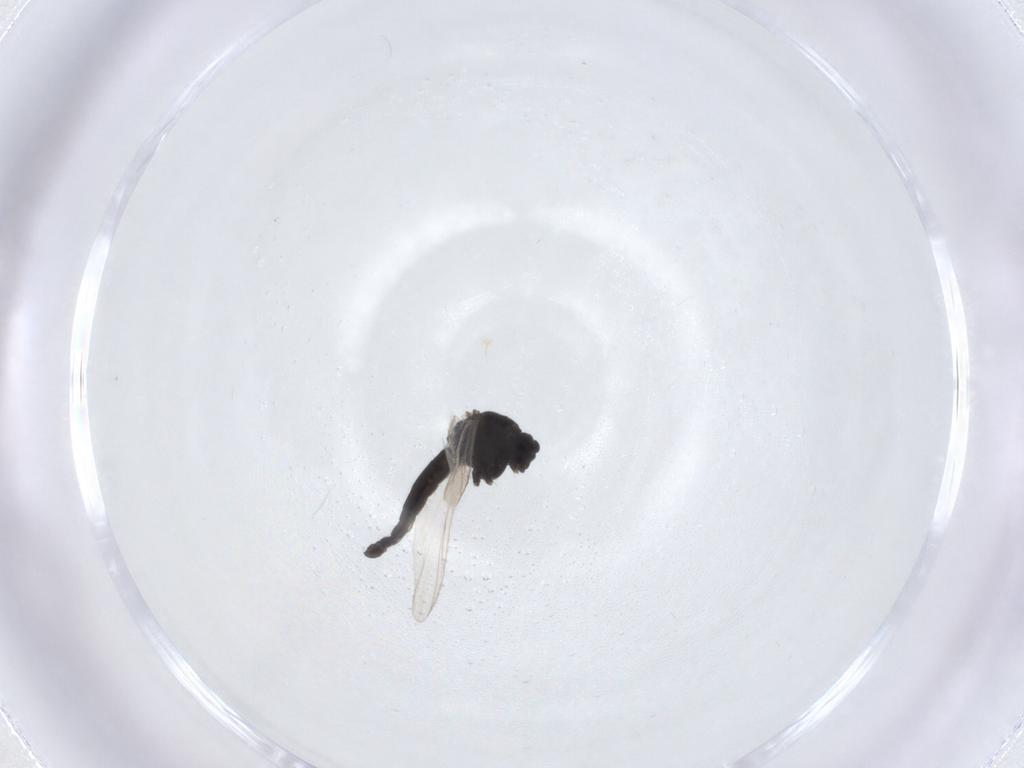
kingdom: Animalia
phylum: Arthropoda
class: Insecta
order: Diptera
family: Chironomidae
